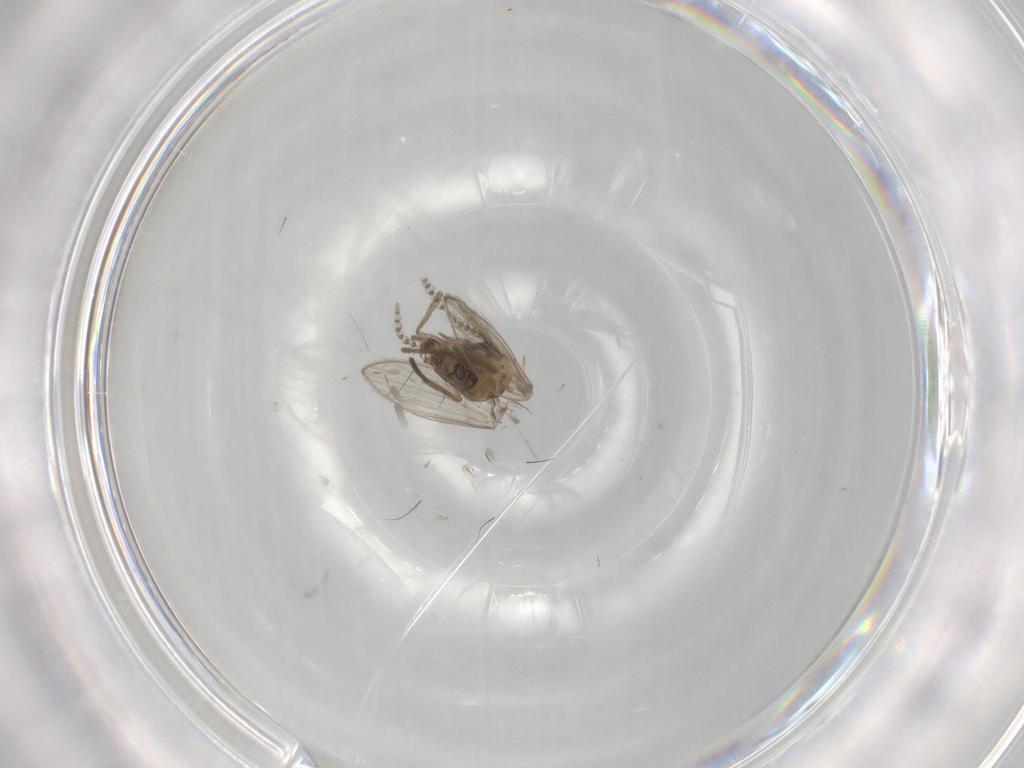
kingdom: Animalia
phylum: Arthropoda
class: Insecta
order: Diptera
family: Psychodidae
